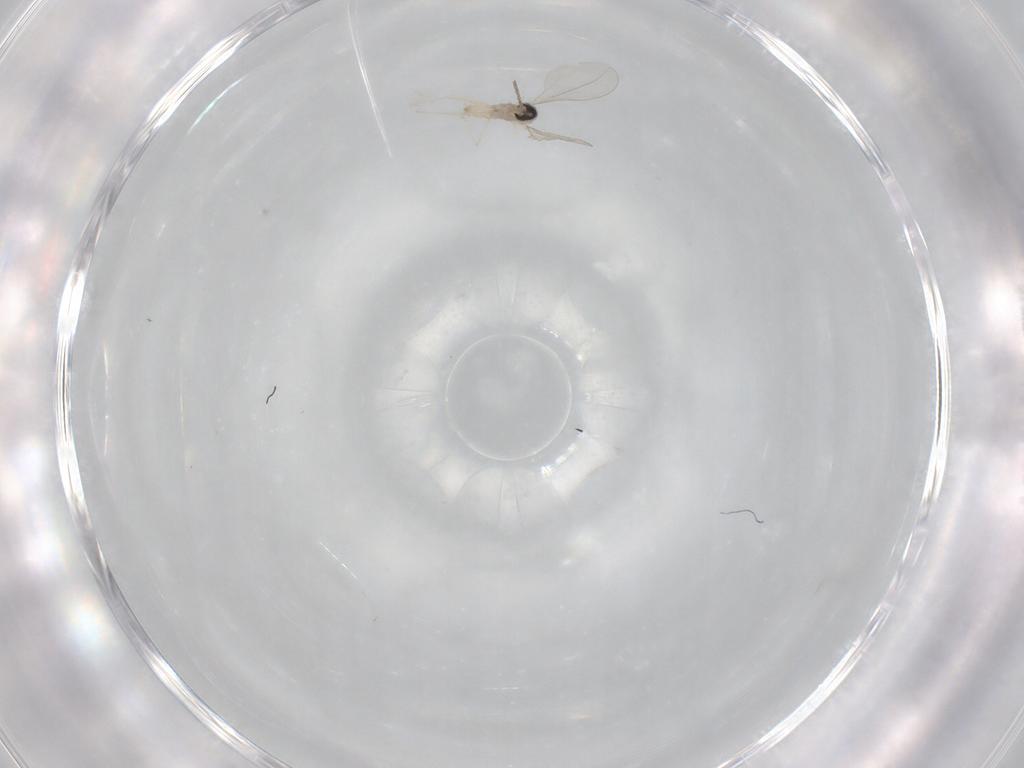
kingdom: Animalia
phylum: Arthropoda
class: Insecta
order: Diptera
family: Cecidomyiidae
